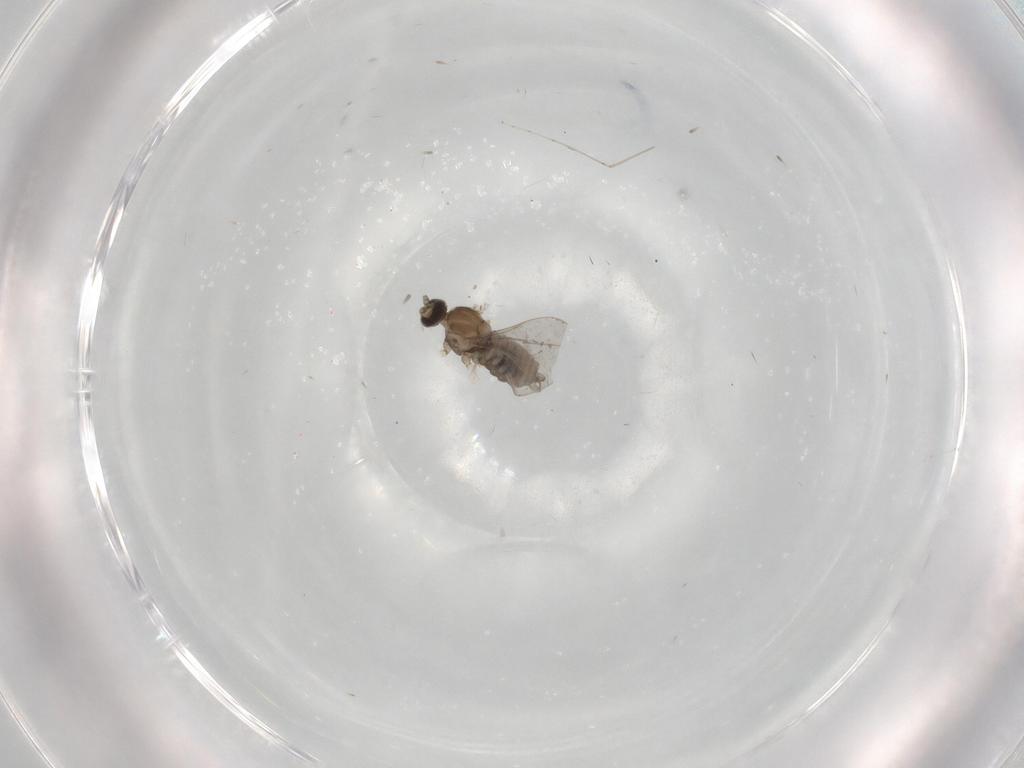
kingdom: Animalia
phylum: Arthropoda
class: Insecta
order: Diptera
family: Cecidomyiidae
